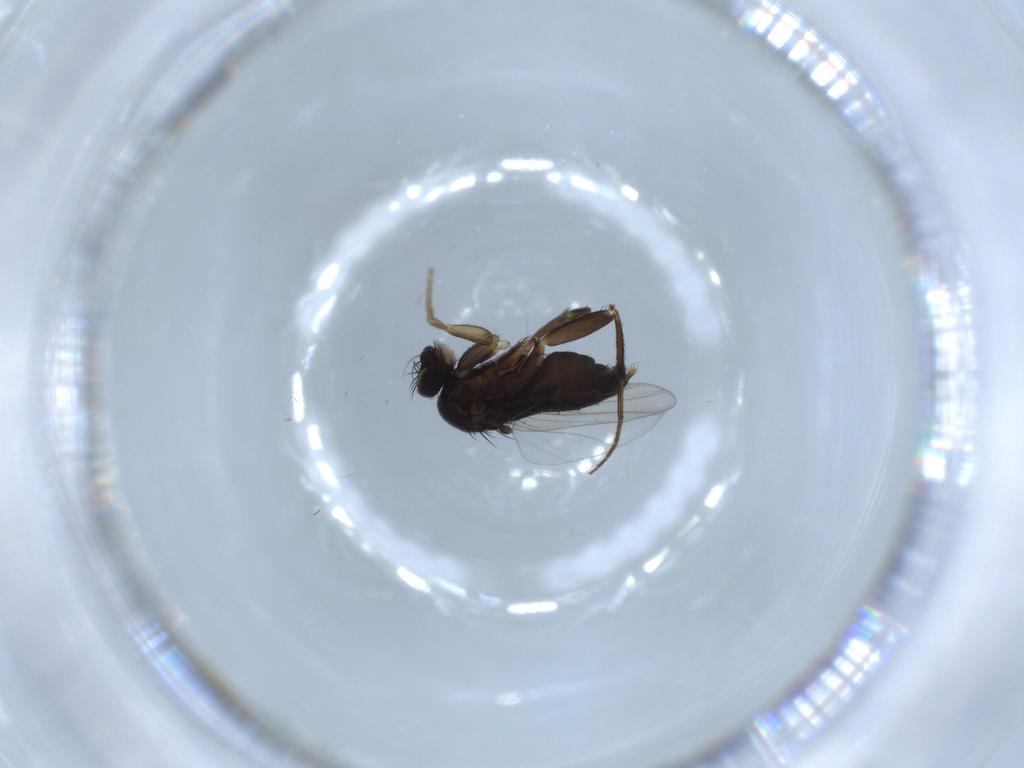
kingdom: Animalia
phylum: Arthropoda
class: Insecta
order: Diptera
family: Phoridae
